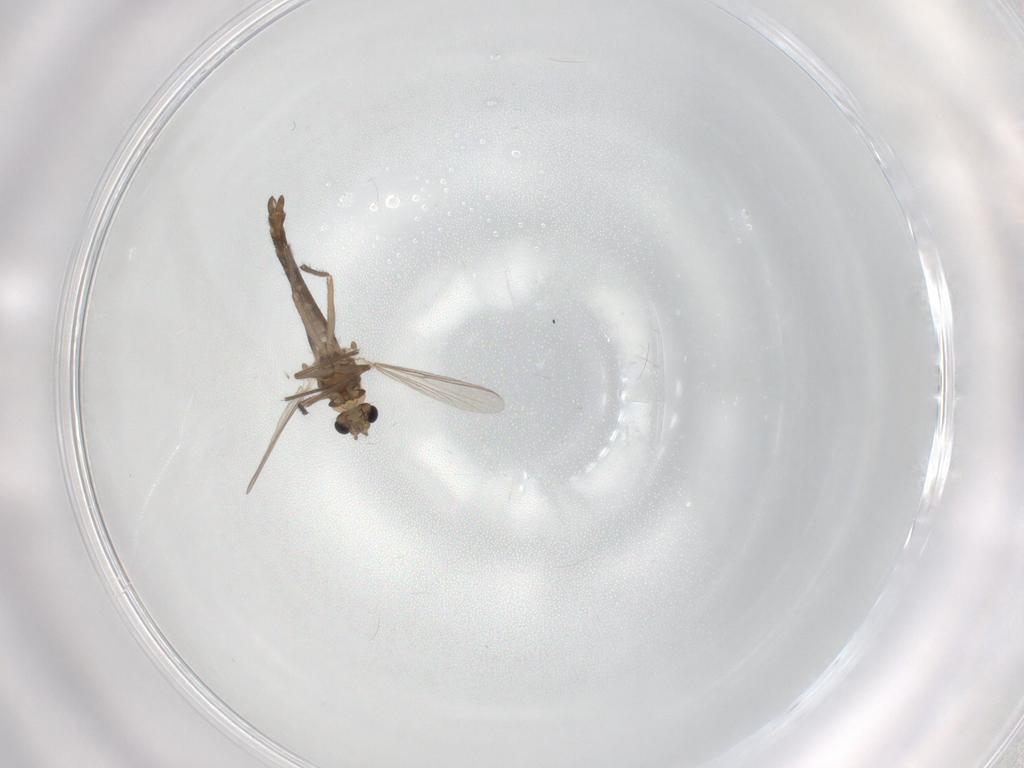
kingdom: Animalia
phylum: Arthropoda
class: Insecta
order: Diptera
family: Chironomidae
